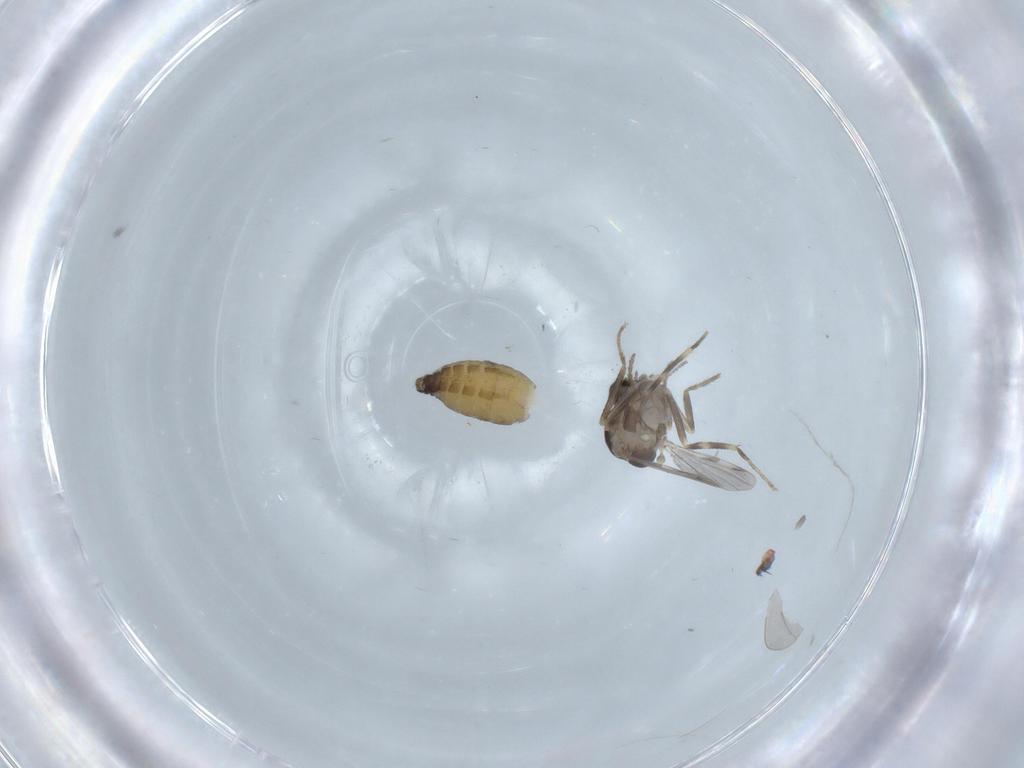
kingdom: Animalia
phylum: Arthropoda
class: Insecta
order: Diptera
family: Ceratopogonidae
